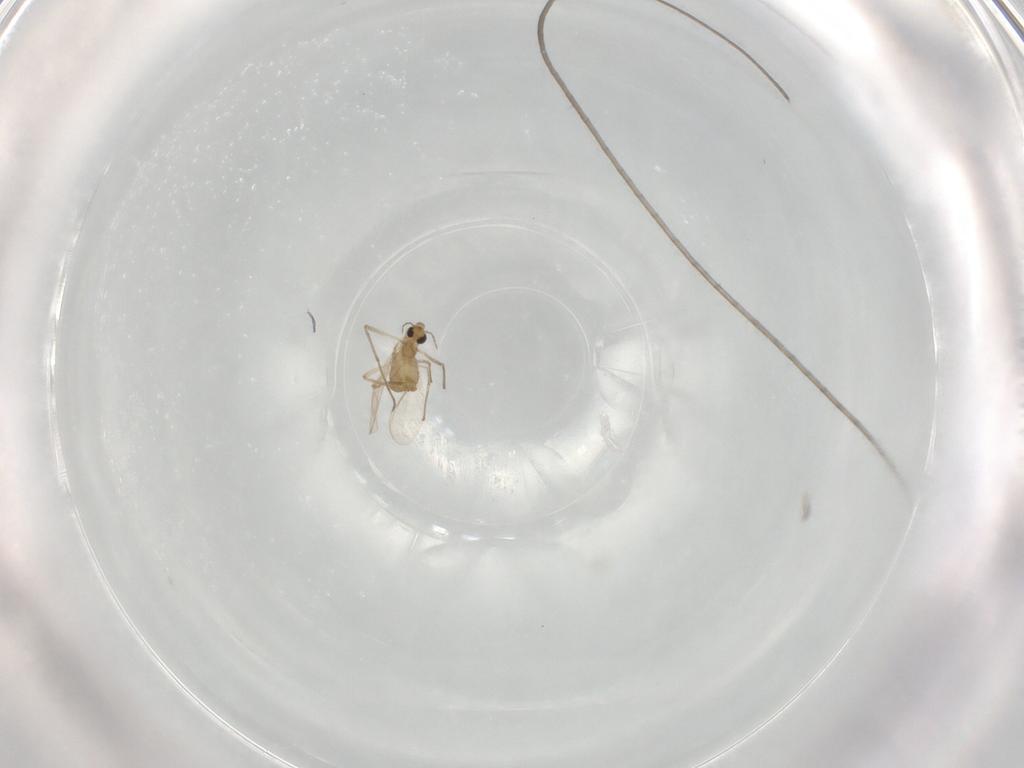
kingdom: Animalia
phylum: Arthropoda
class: Insecta
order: Diptera
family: Chironomidae
